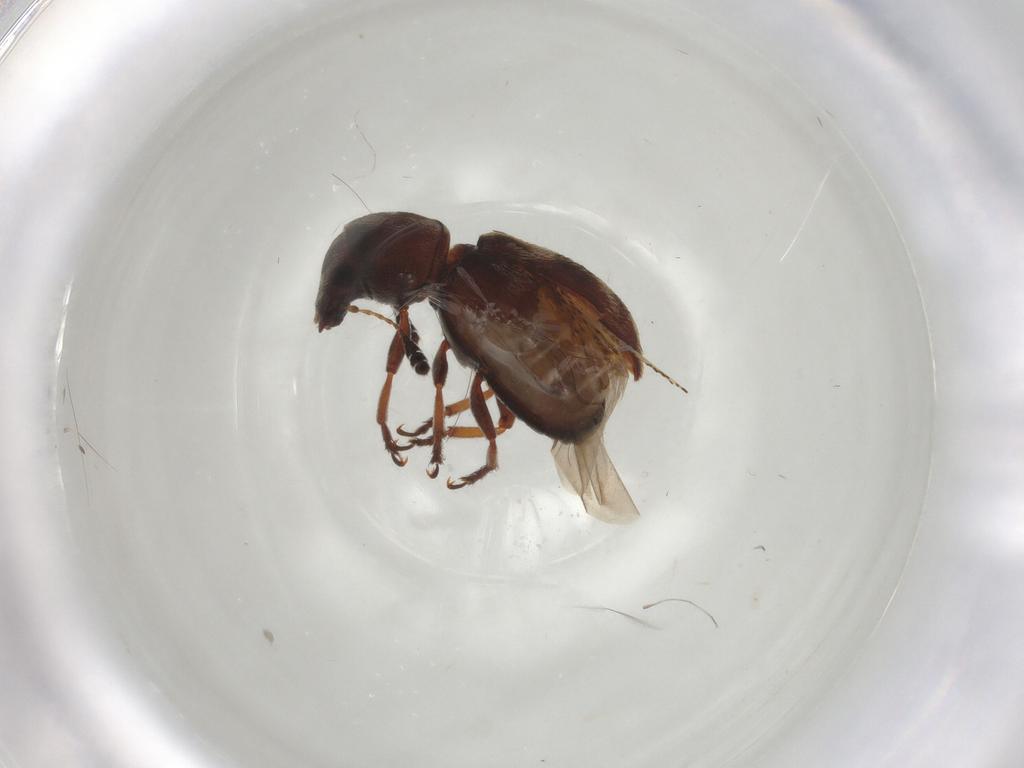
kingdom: Animalia
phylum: Arthropoda
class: Insecta
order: Coleoptera
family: Anthribidae
